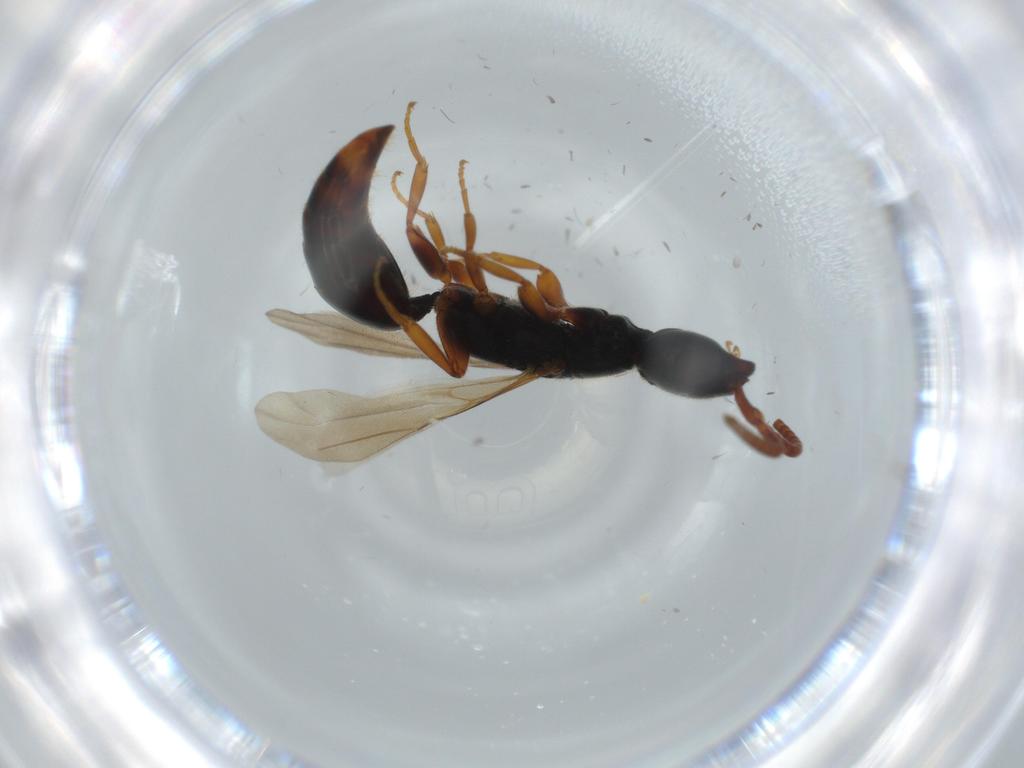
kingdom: Animalia
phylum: Arthropoda
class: Insecta
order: Hymenoptera
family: Bethylidae
